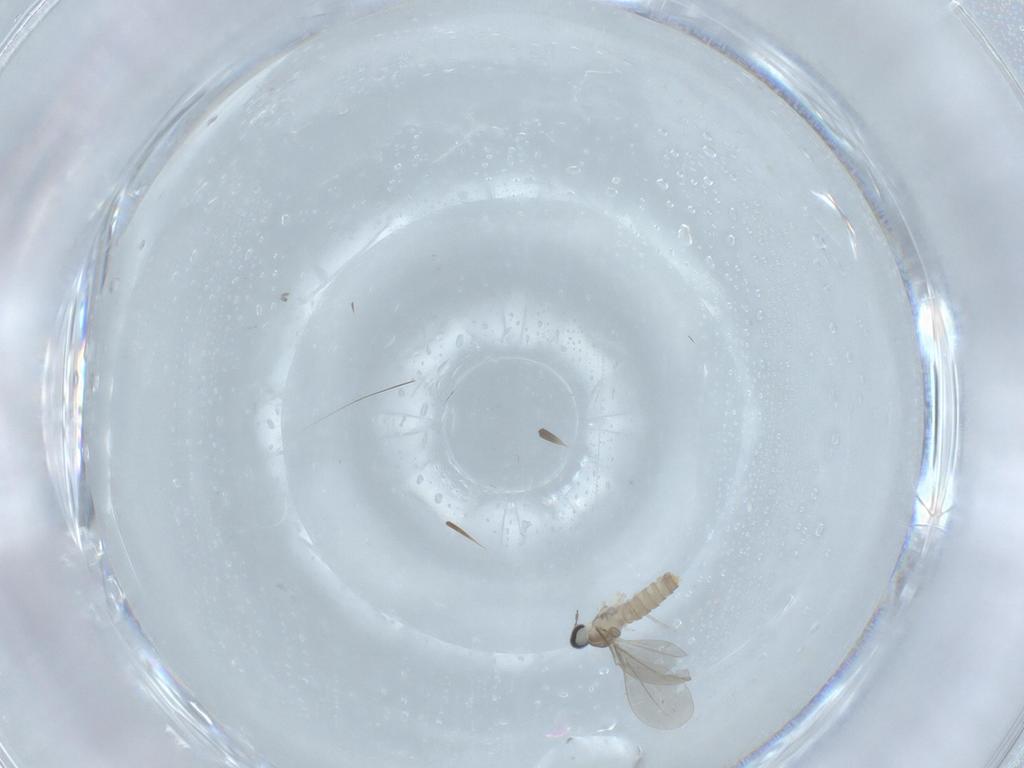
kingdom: Animalia
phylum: Arthropoda
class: Insecta
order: Diptera
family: Cecidomyiidae
